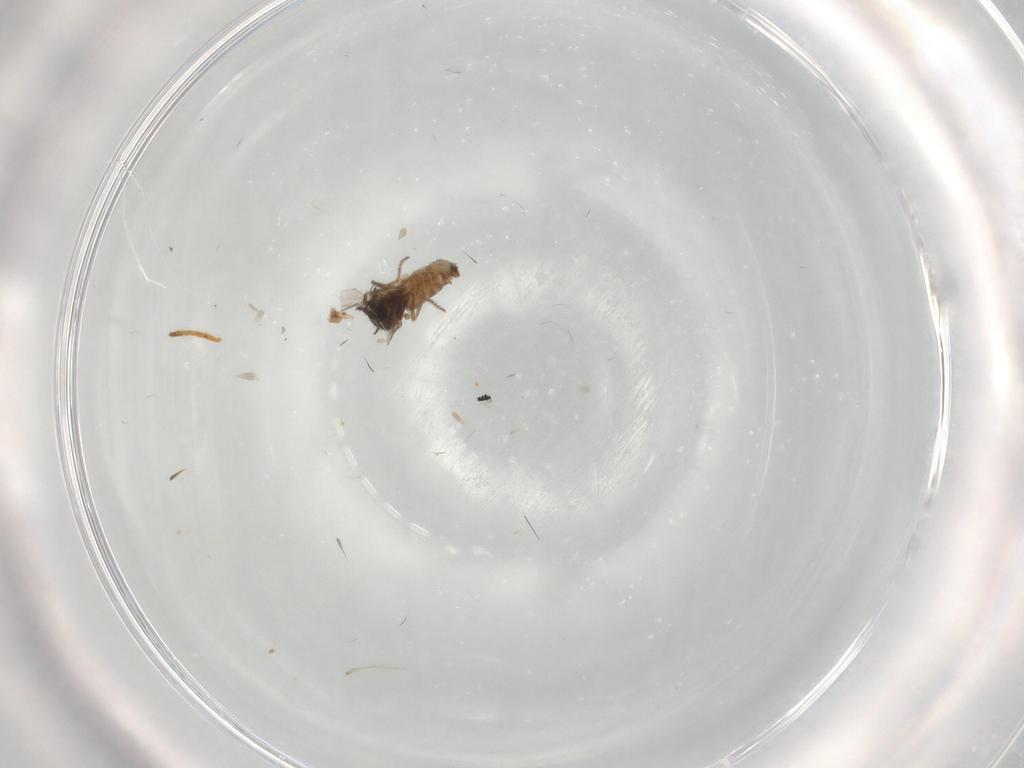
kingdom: Animalia
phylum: Arthropoda
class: Insecta
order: Diptera
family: Ceratopogonidae
